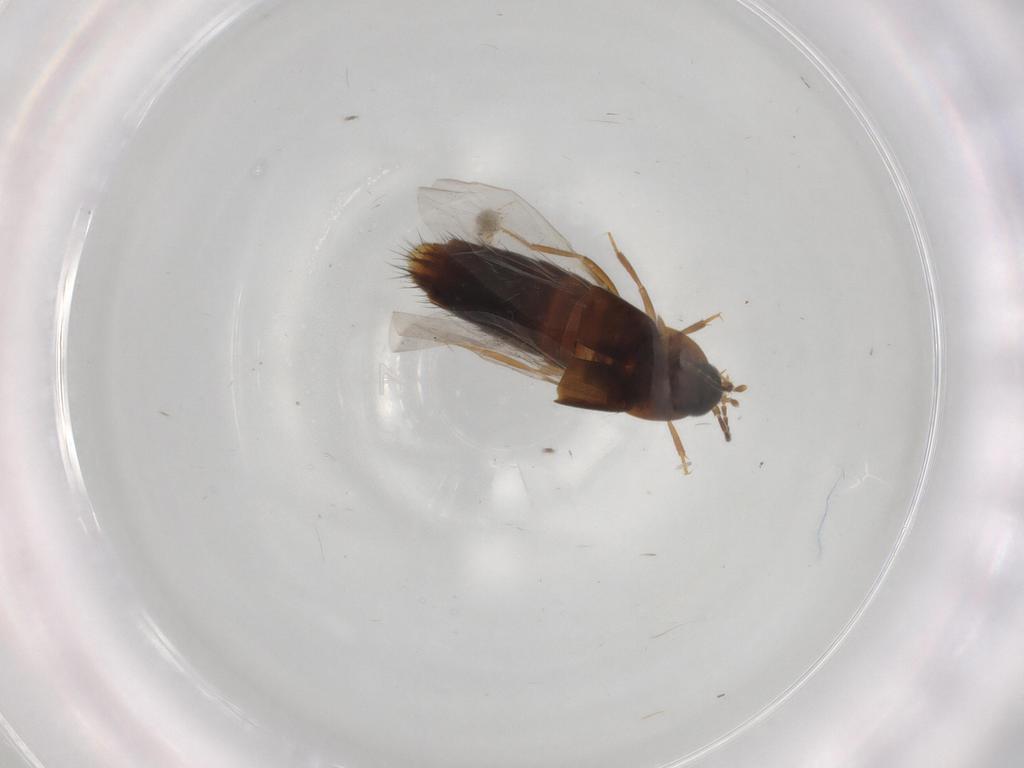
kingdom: Animalia
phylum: Arthropoda
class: Insecta
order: Coleoptera
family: Staphylinidae
